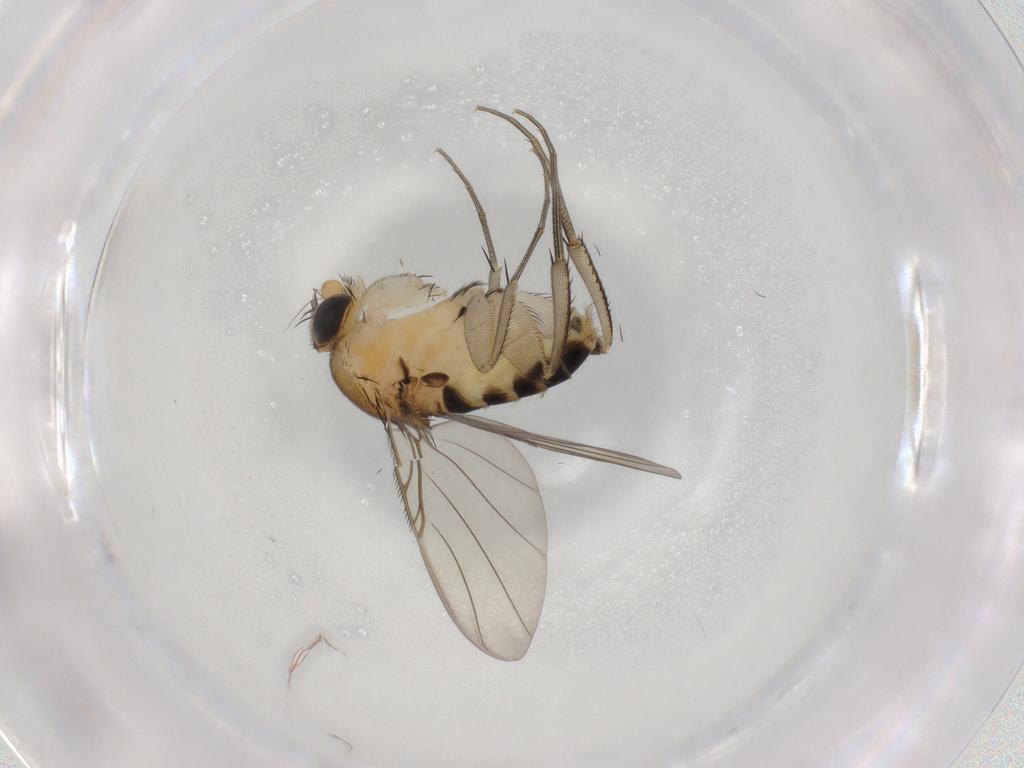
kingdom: Animalia
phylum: Arthropoda
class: Insecta
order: Diptera
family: Phoridae
